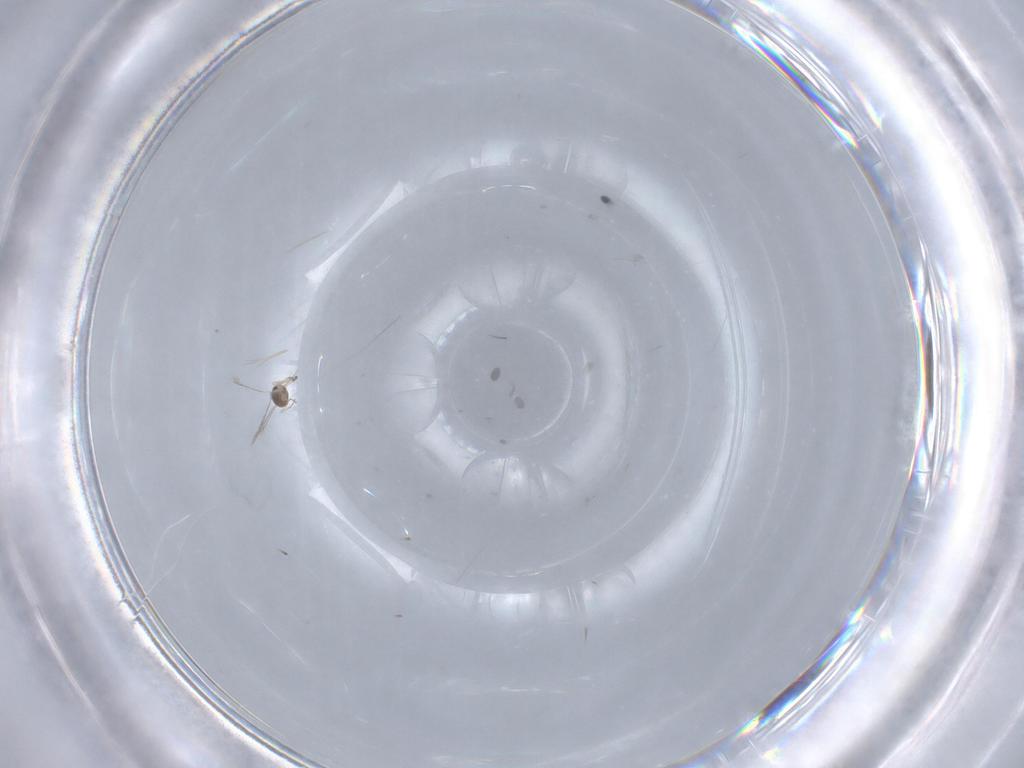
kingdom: Animalia
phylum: Arthropoda
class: Insecta
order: Hymenoptera
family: Mymaridae
